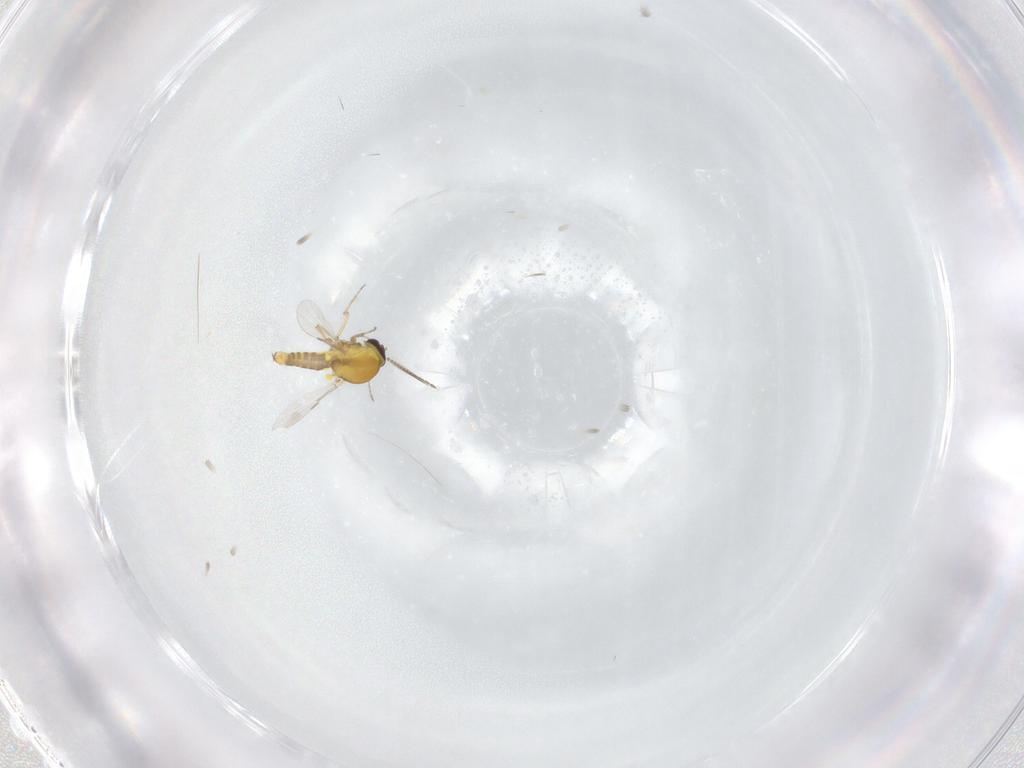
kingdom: Animalia
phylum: Arthropoda
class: Insecta
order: Diptera
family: Ceratopogonidae
